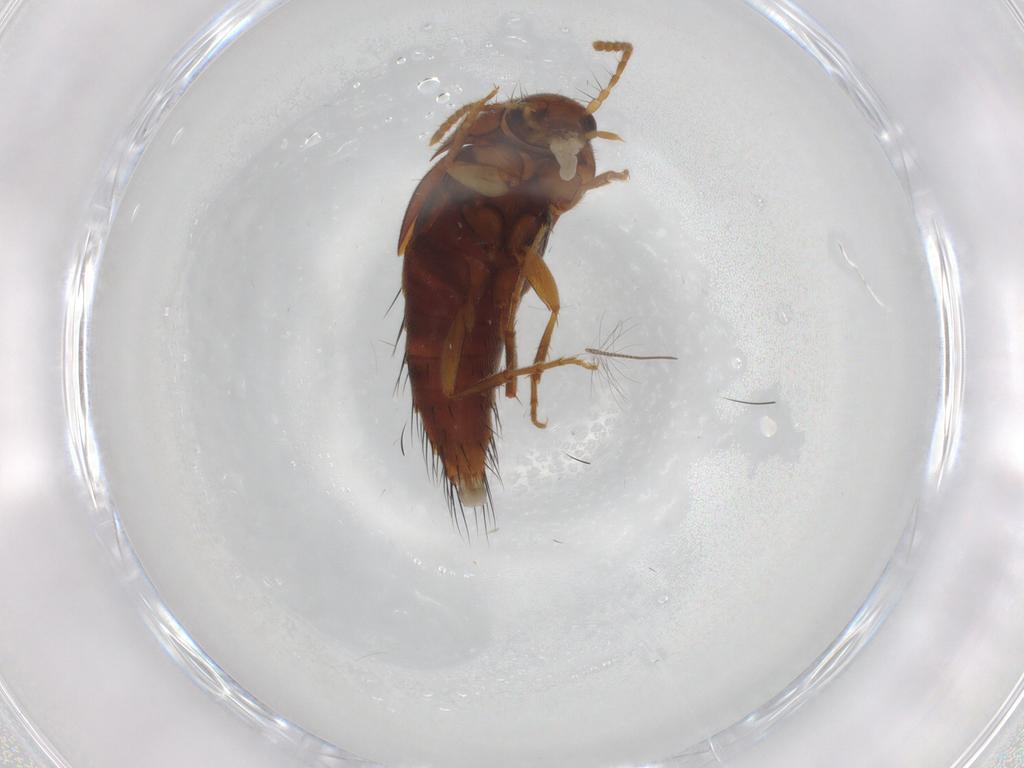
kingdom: Animalia
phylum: Arthropoda
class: Insecta
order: Coleoptera
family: Staphylinidae
